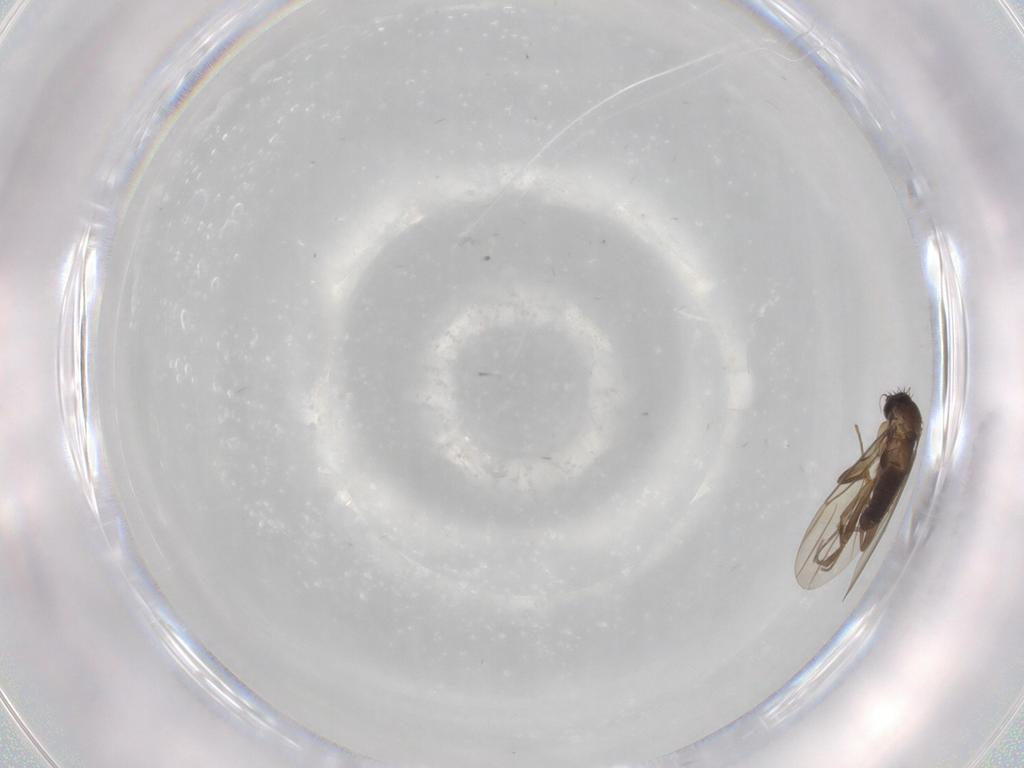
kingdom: Animalia
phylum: Arthropoda
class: Insecta
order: Diptera
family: Phoridae
